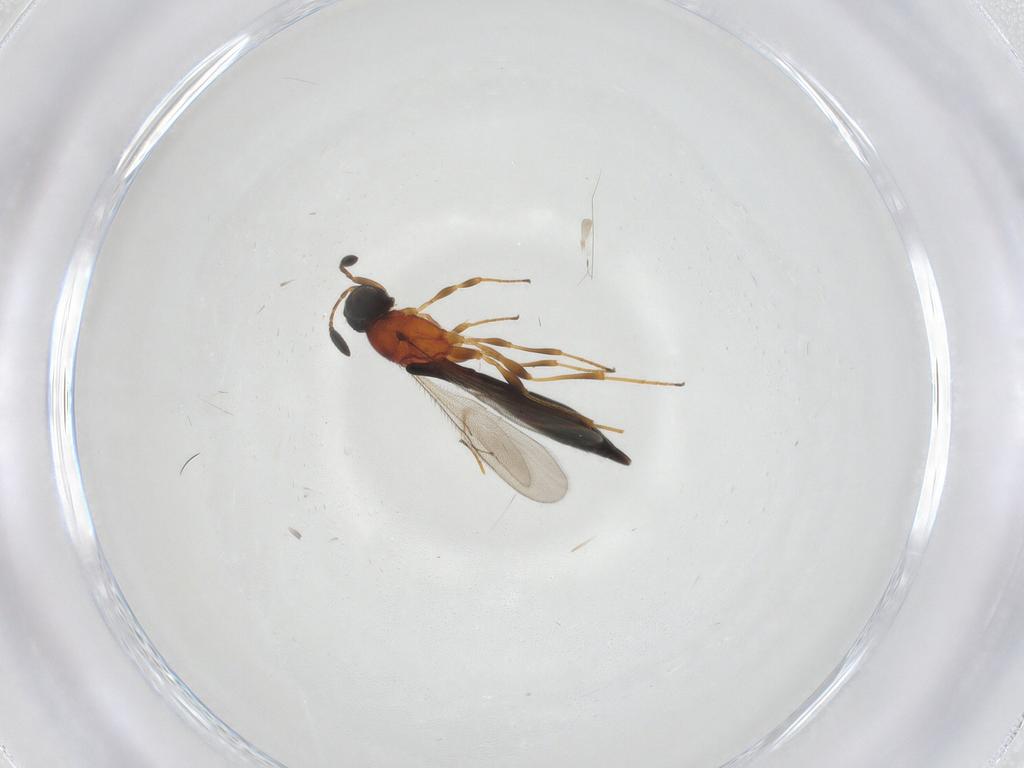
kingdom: Animalia
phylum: Arthropoda
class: Insecta
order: Hymenoptera
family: Scelionidae
